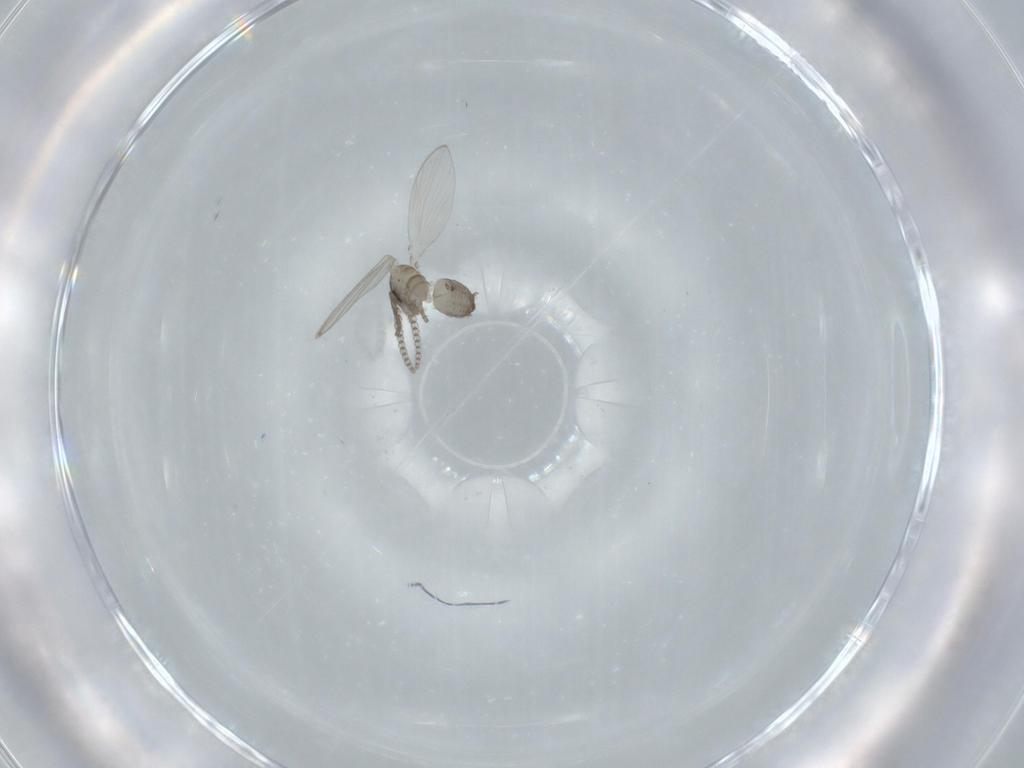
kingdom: Animalia
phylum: Arthropoda
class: Insecta
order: Diptera
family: Psychodidae
